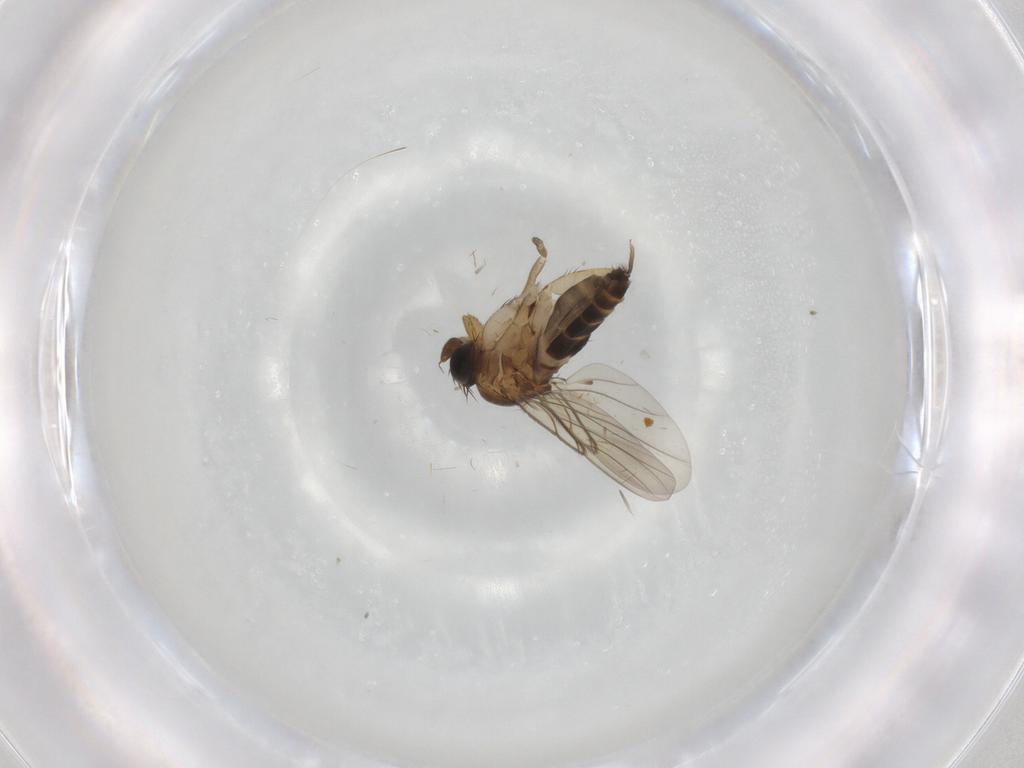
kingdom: Animalia
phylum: Arthropoda
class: Insecta
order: Diptera
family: Phoridae
